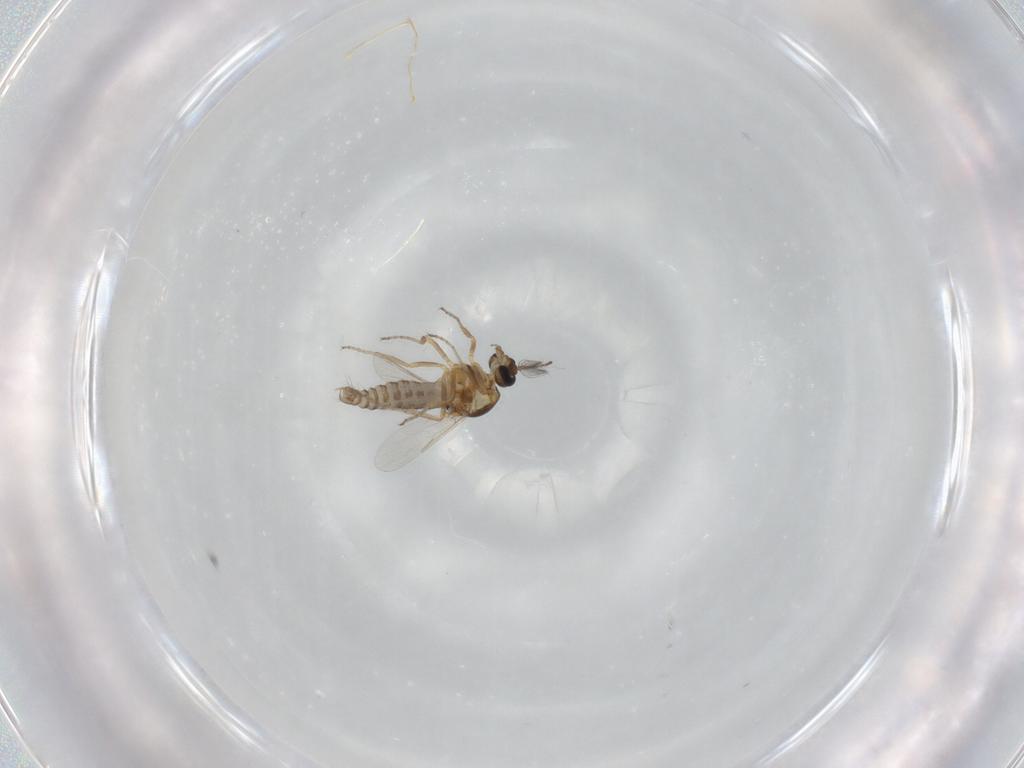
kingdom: Animalia
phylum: Arthropoda
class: Insecta
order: Diptera
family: Ceratopogonidae
